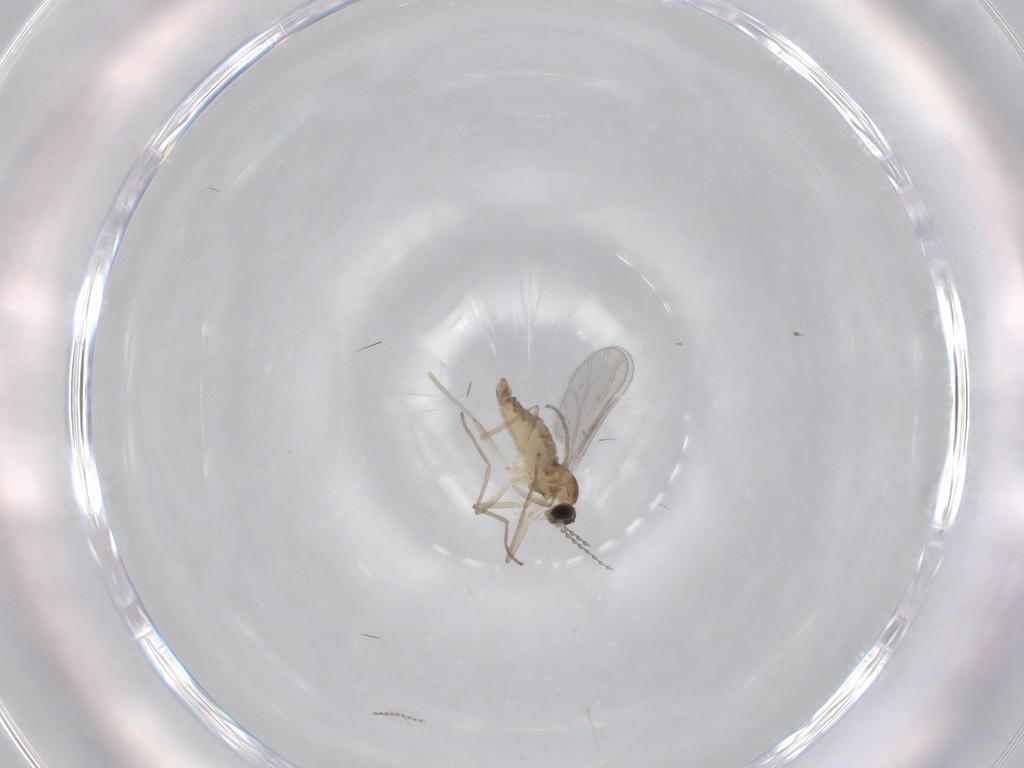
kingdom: Animalia
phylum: Arthropoda
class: Insecta
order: Diptera
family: Cecidomyiidae
